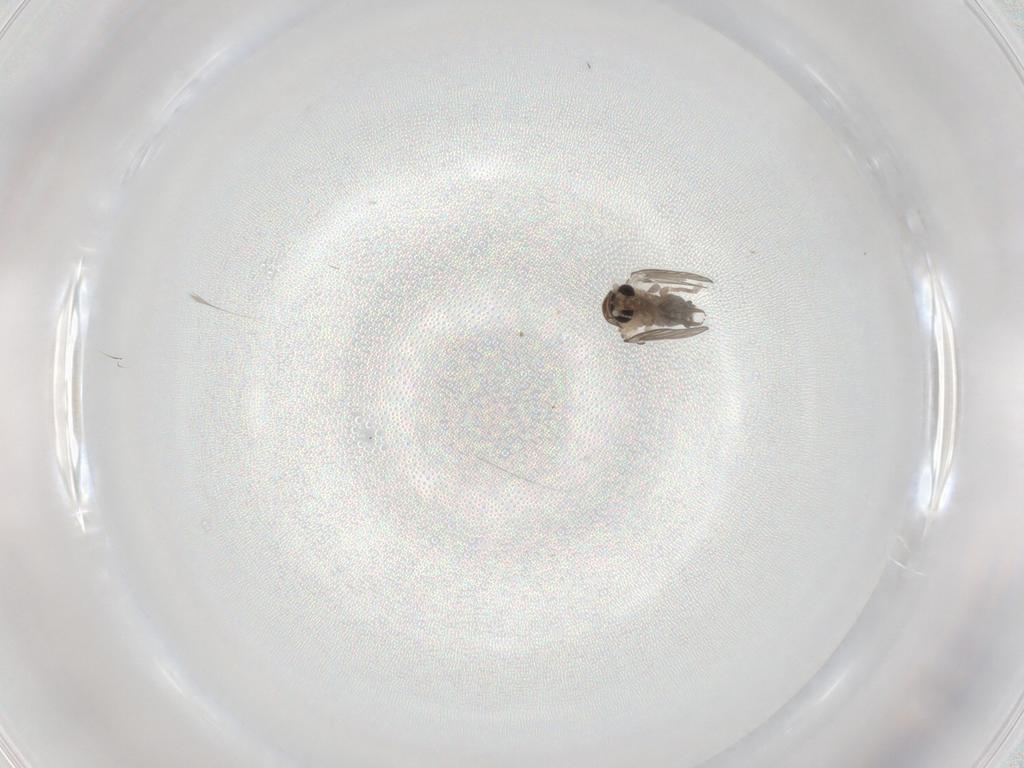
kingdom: Animalia
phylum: Arthropoda
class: Insecta
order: Diptera
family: Psychodidae
